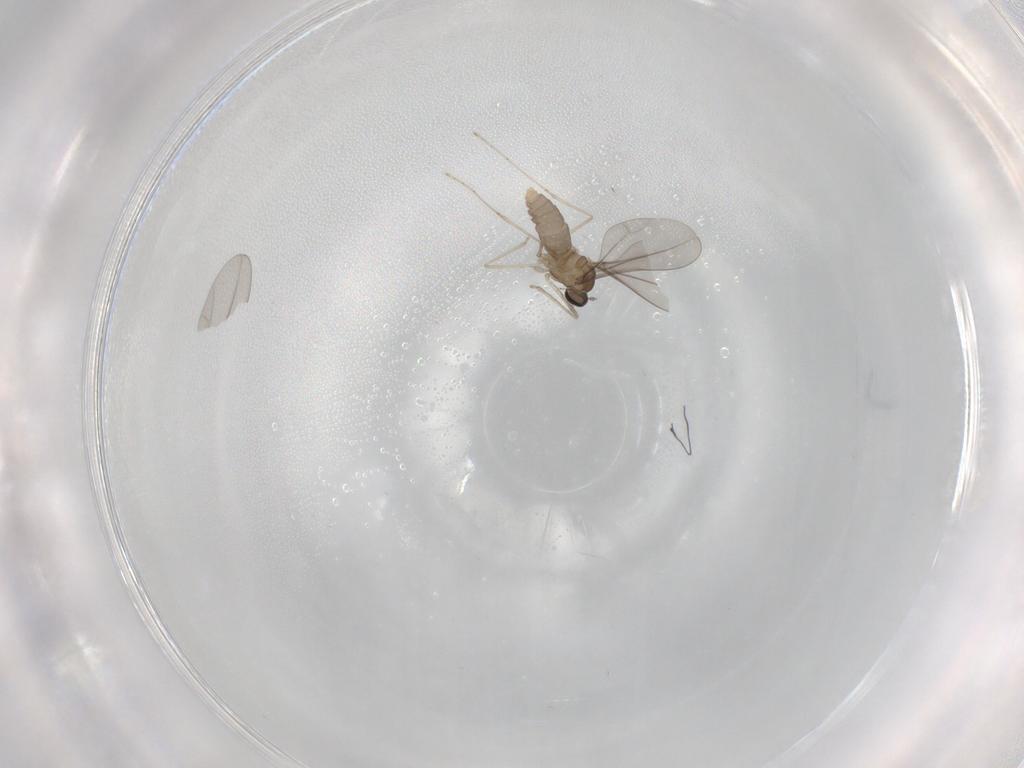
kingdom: Animalia
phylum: Arthropoda
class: Insecta
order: Diptera
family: Cecidomyiidae
